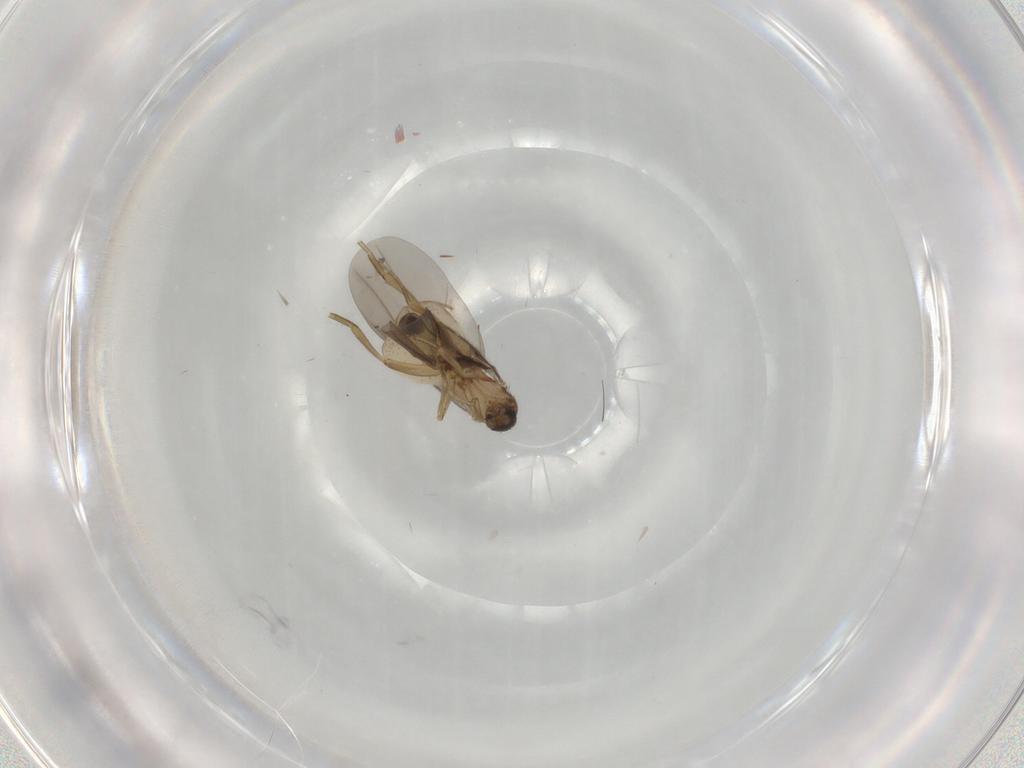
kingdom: Animalia
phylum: Arthropoda
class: Insecta
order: Diptera
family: Phoridae
